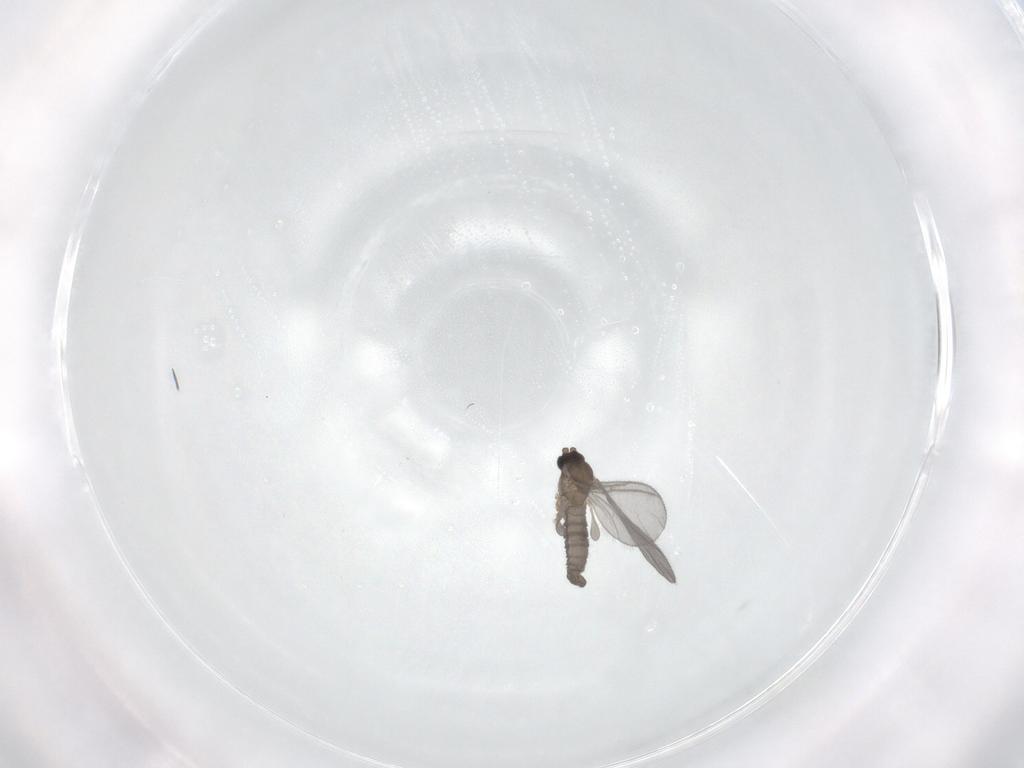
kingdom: Animalia
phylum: Arthropoda
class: Insecta
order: Diptera
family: Sciaridae
